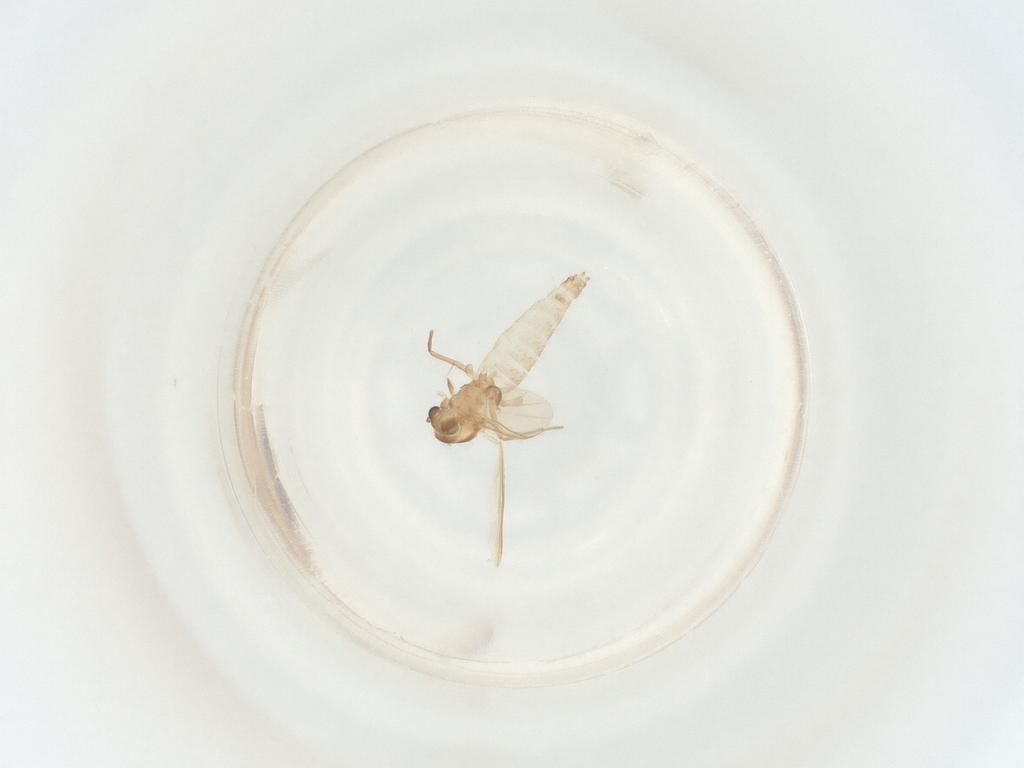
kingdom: Animalia
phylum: Arthropoda
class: Insecta
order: Diptera
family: Chironomidae
